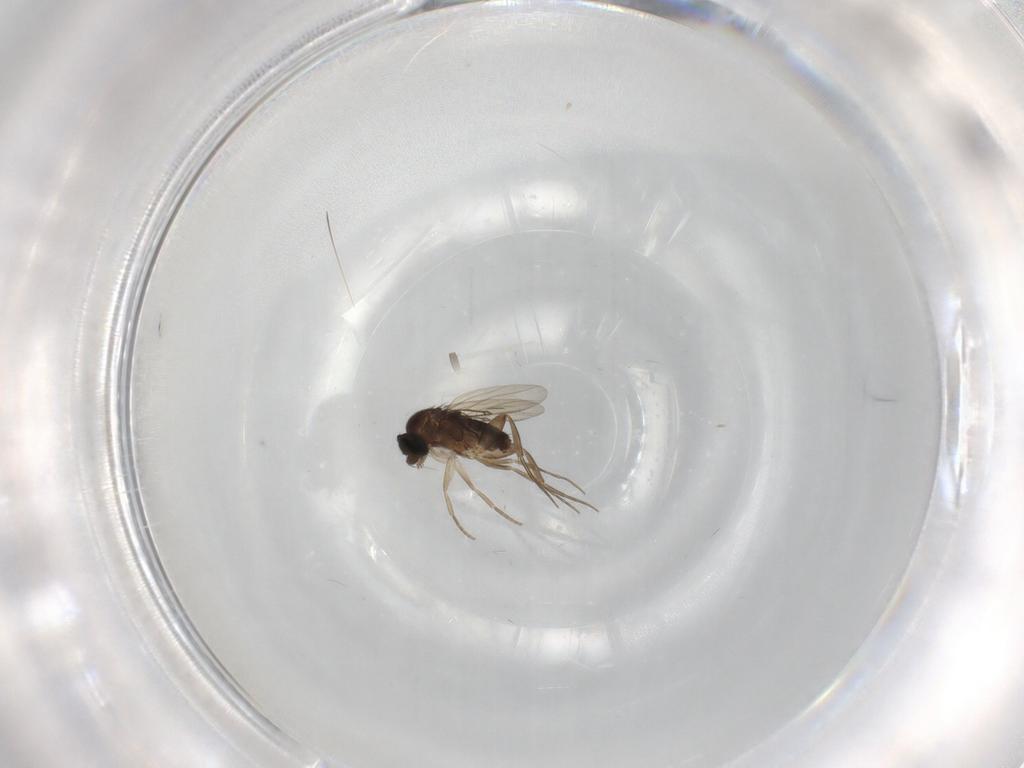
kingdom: Animalia
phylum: Arthropoda
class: Insecta
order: Diptera
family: Phoridae
